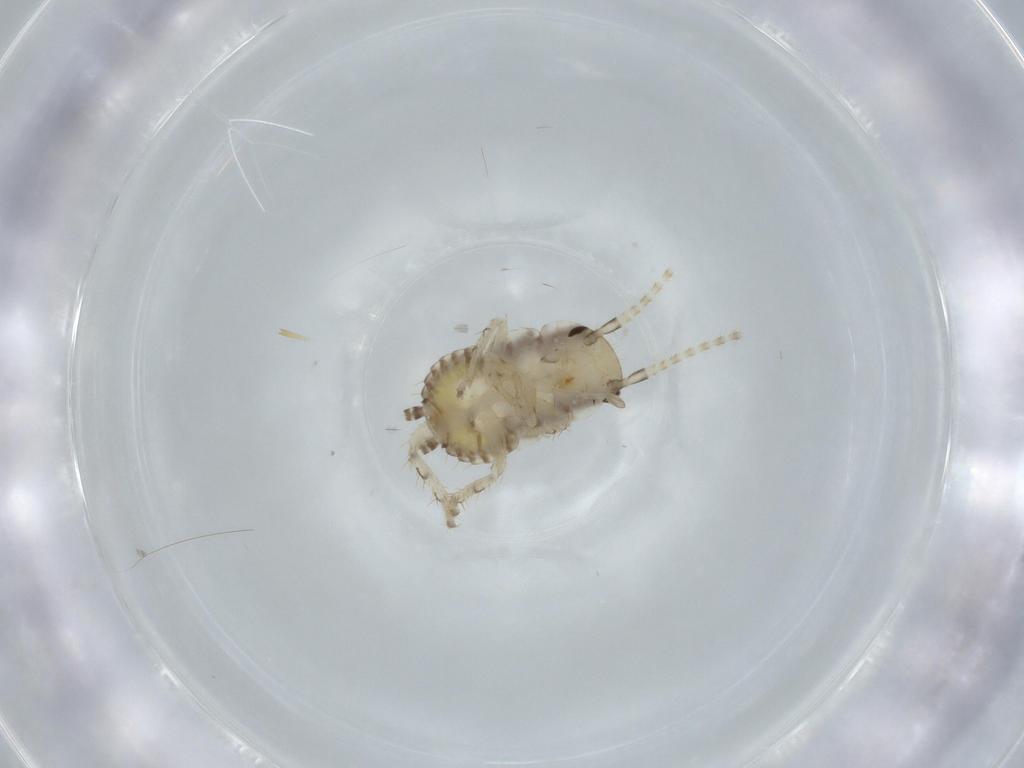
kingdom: Animalia
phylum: Arthropoda
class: Insecta
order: Blattodea
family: Ectobiidae
